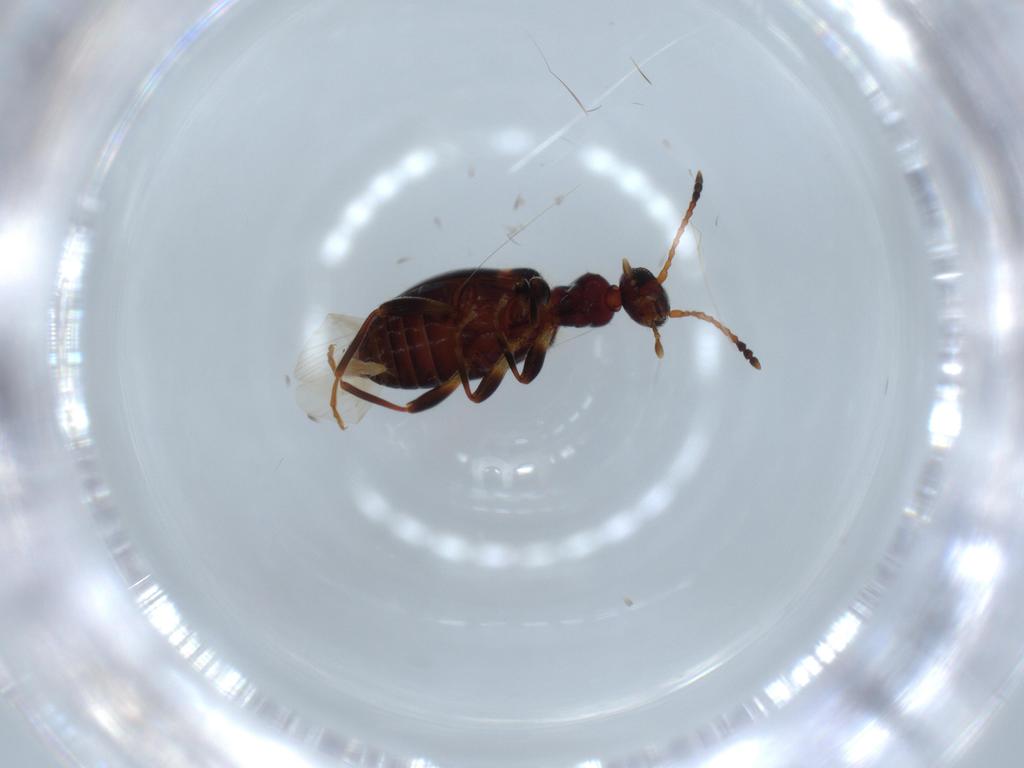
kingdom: Animalia
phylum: Arthropoda
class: Insecta
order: Coleoptera
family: Anthicidae
